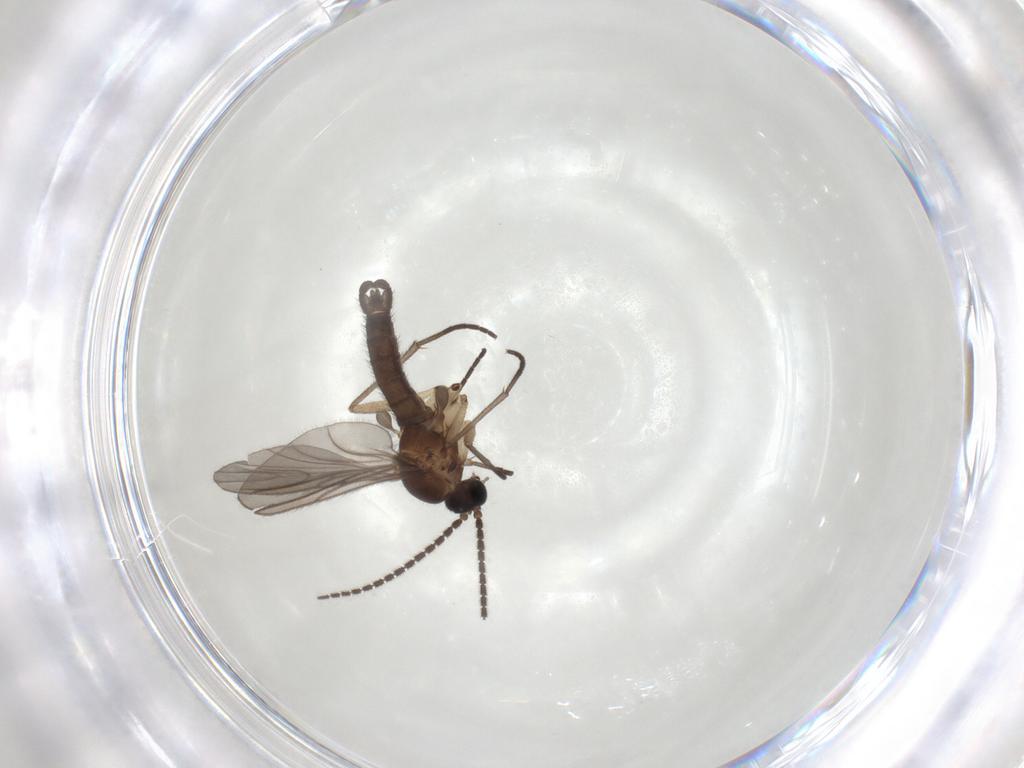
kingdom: Animalia
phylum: Arthropoda
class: Insecta
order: Diptera
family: Sciaridae
